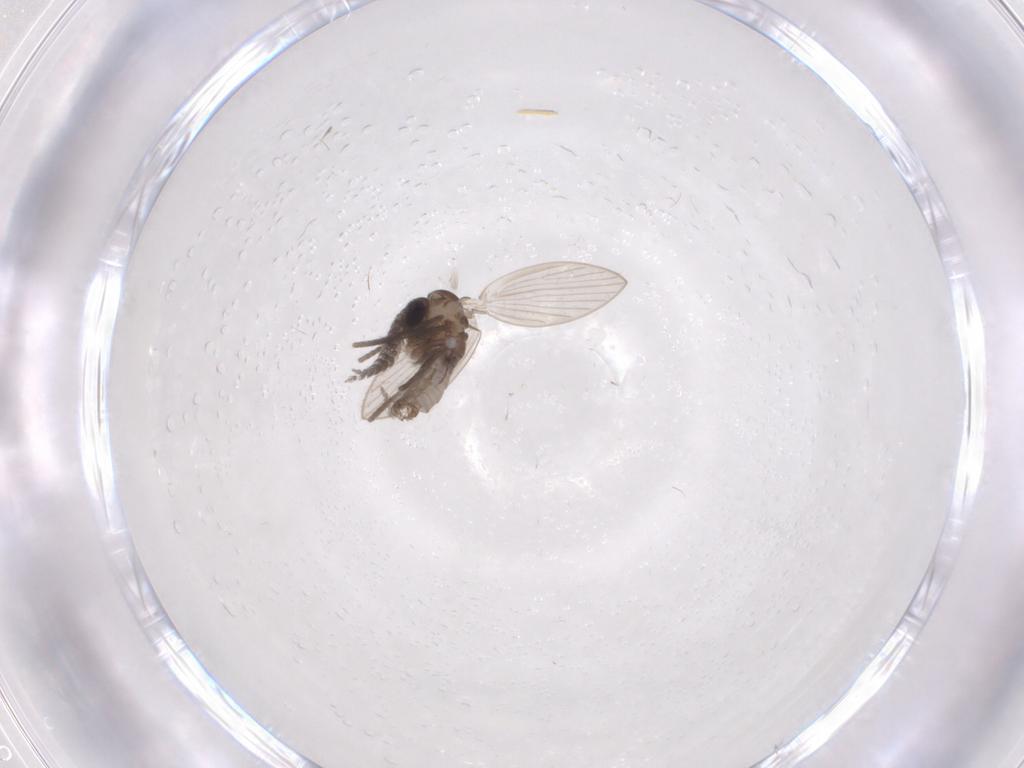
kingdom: Animalia
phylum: Arthropoda
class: Insecta
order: Diptera
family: Psychodidae
